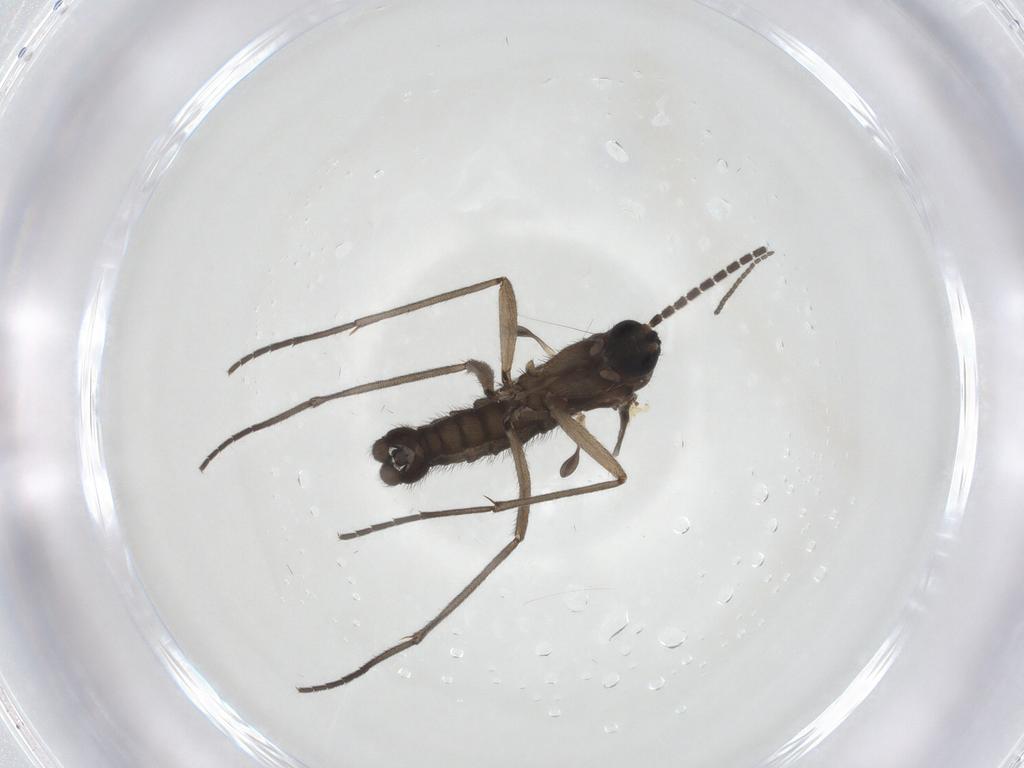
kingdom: Animalia
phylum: Arthropoda
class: Insecta
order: Diptera
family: Sciaridae
